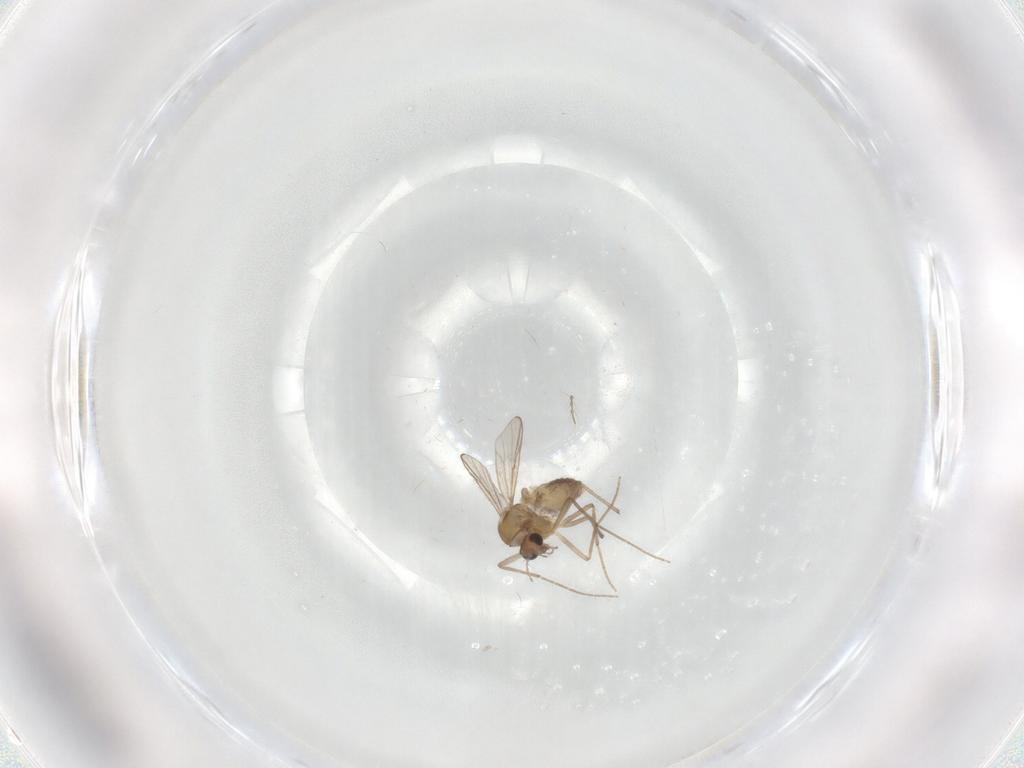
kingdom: Animalia
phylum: Arthropoda
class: Insecta
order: Diptera
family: Chironomidae
